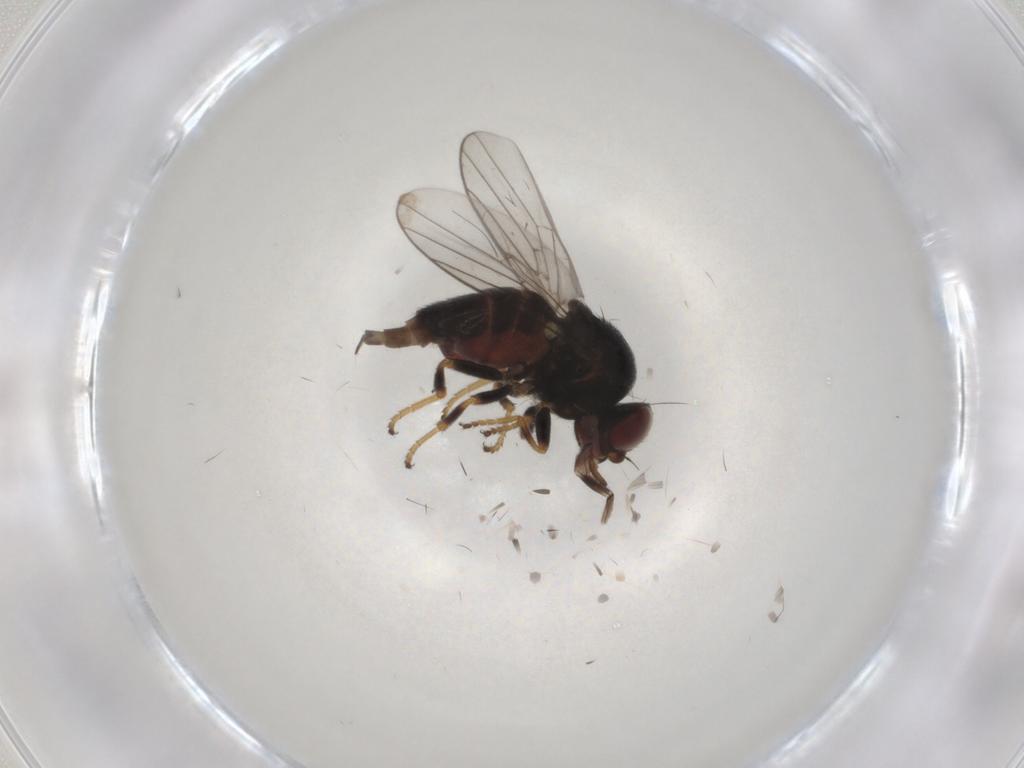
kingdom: Animalia
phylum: Arthropoda
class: Insecta
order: Diptera
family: Chloropidae
